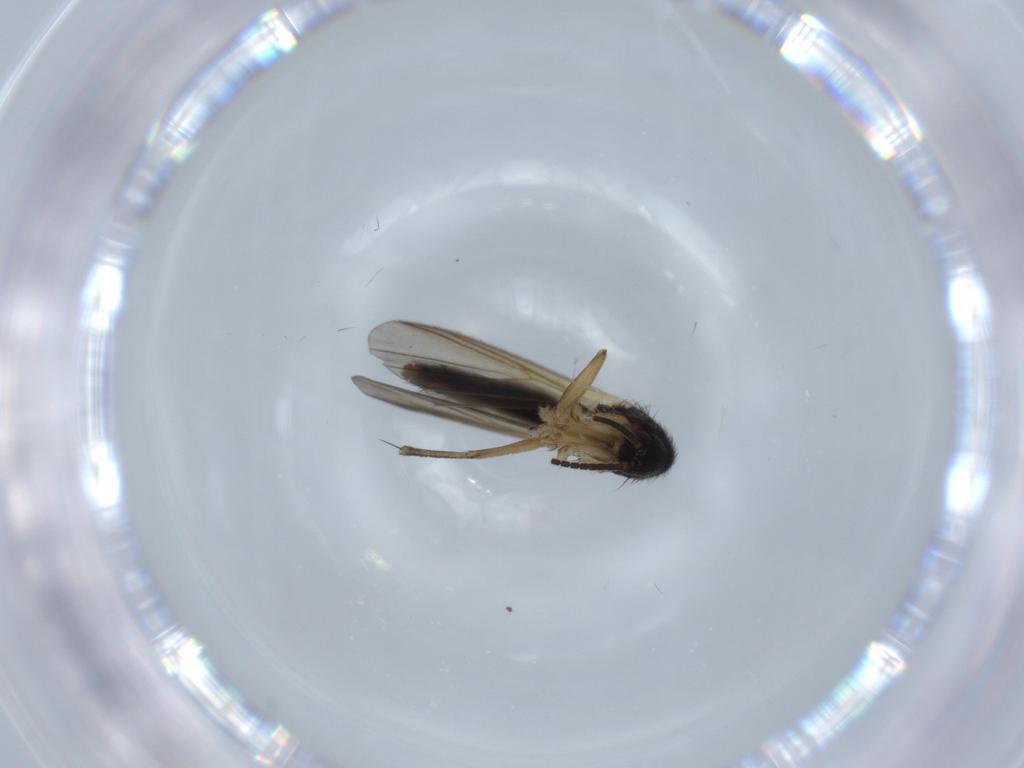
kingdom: Animalia
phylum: Arthropoda
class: Insecta
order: Diptera
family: Mycetophilidae
